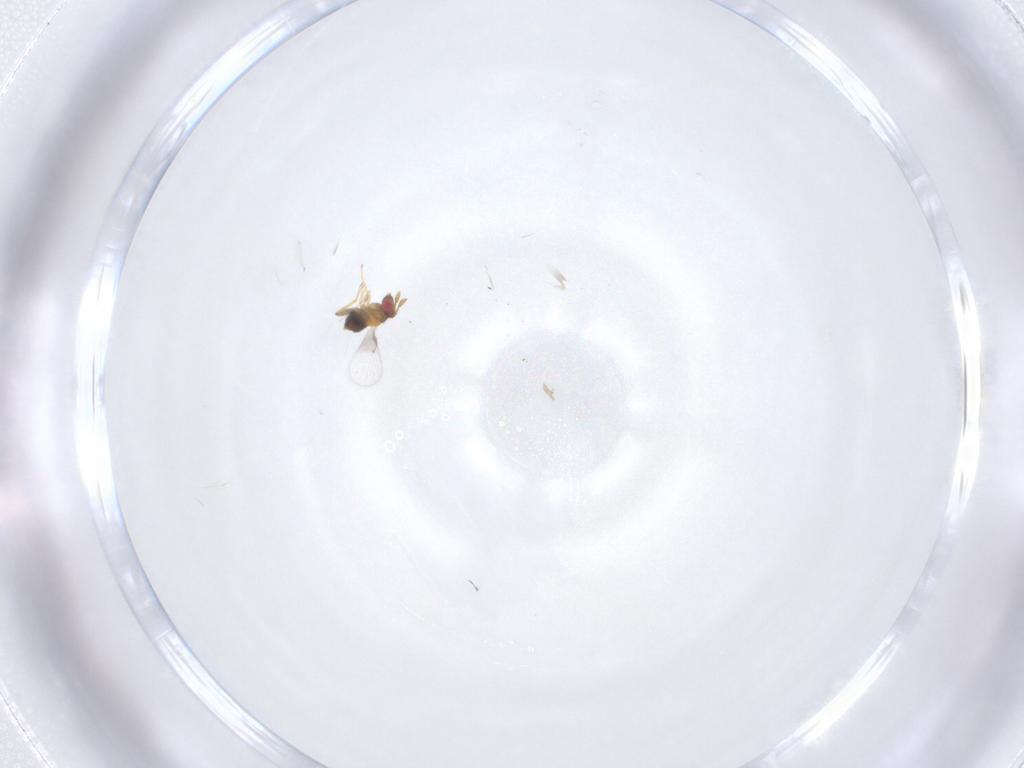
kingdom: Animalia
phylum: Arthropoda
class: Insecta
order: Hymenoptera
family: Trichogrammatidae
